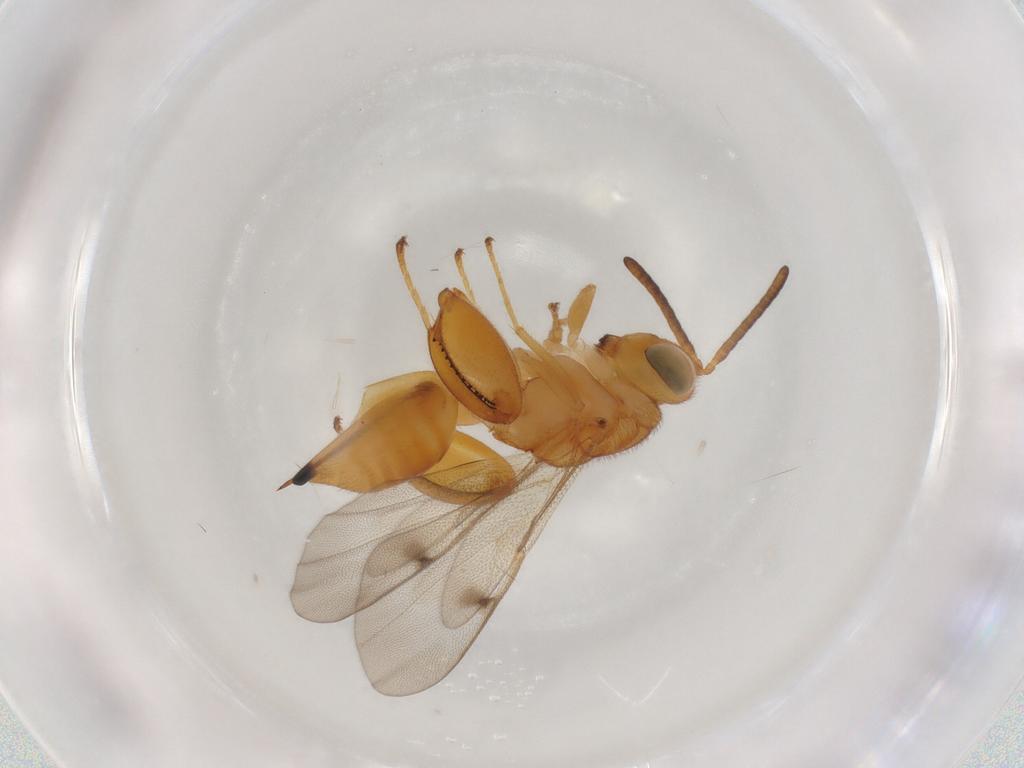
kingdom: Animalia
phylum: Arthropoda
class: Insecta
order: Hymenoptera
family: Chalcididae
